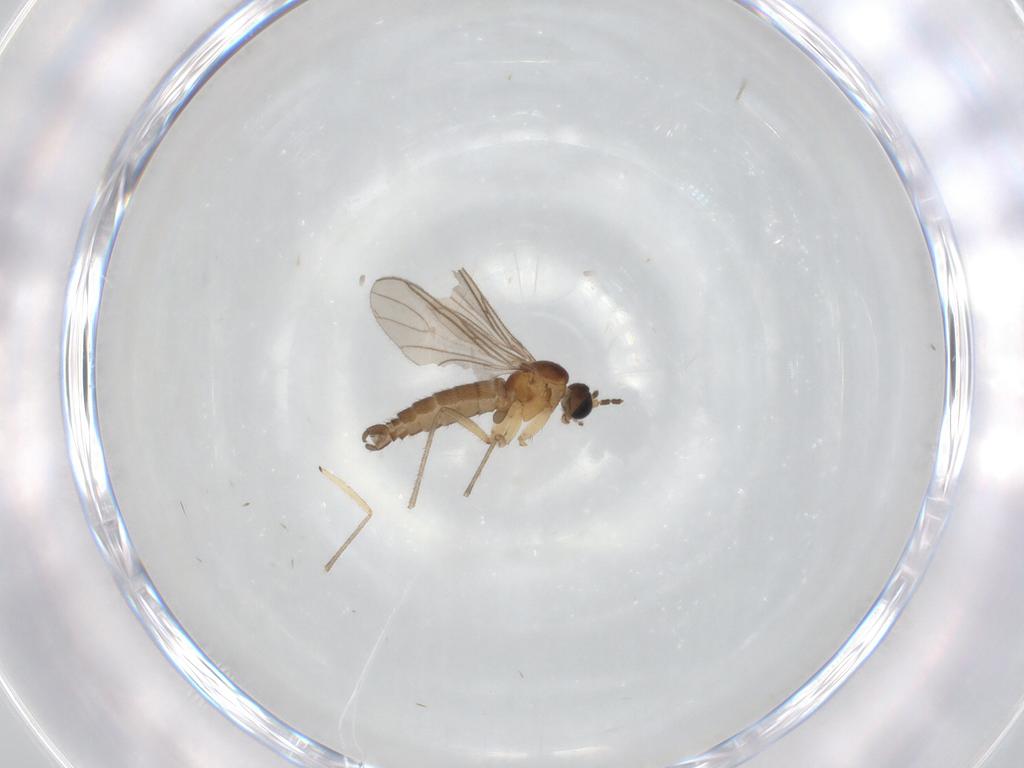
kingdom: Animalia
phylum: Arthropoda
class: Insecta
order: Diptera
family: Sciaridae
